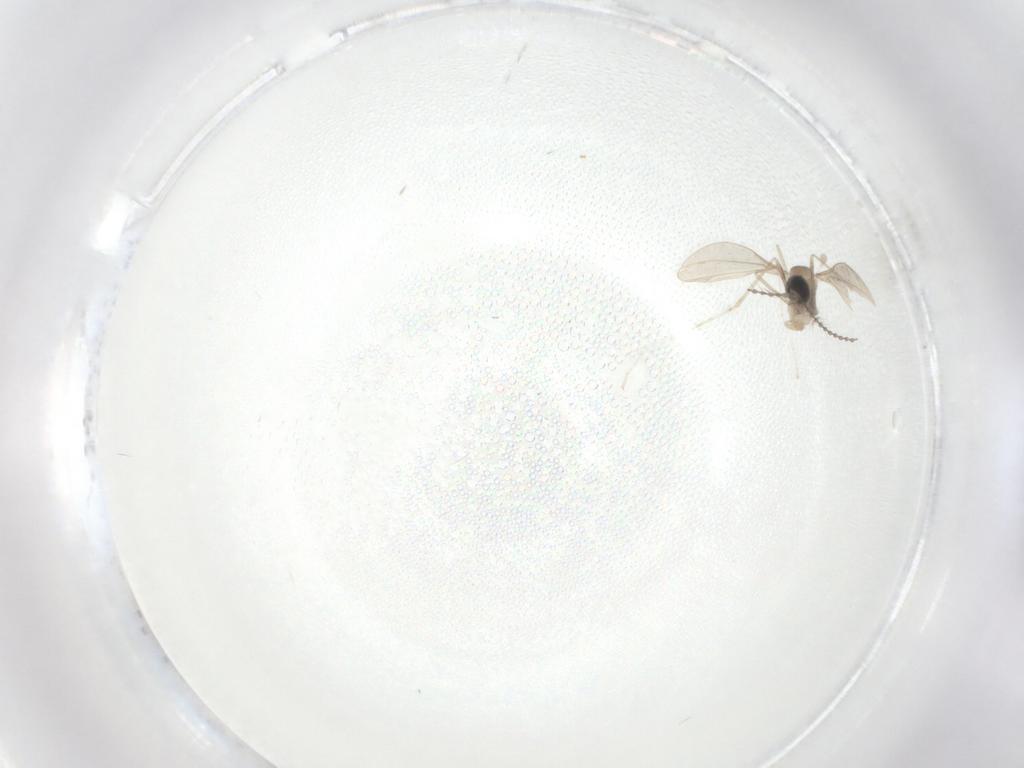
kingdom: Animalia
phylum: Arthropoda
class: Insecta
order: Diptera
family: Cecidomyiidae
